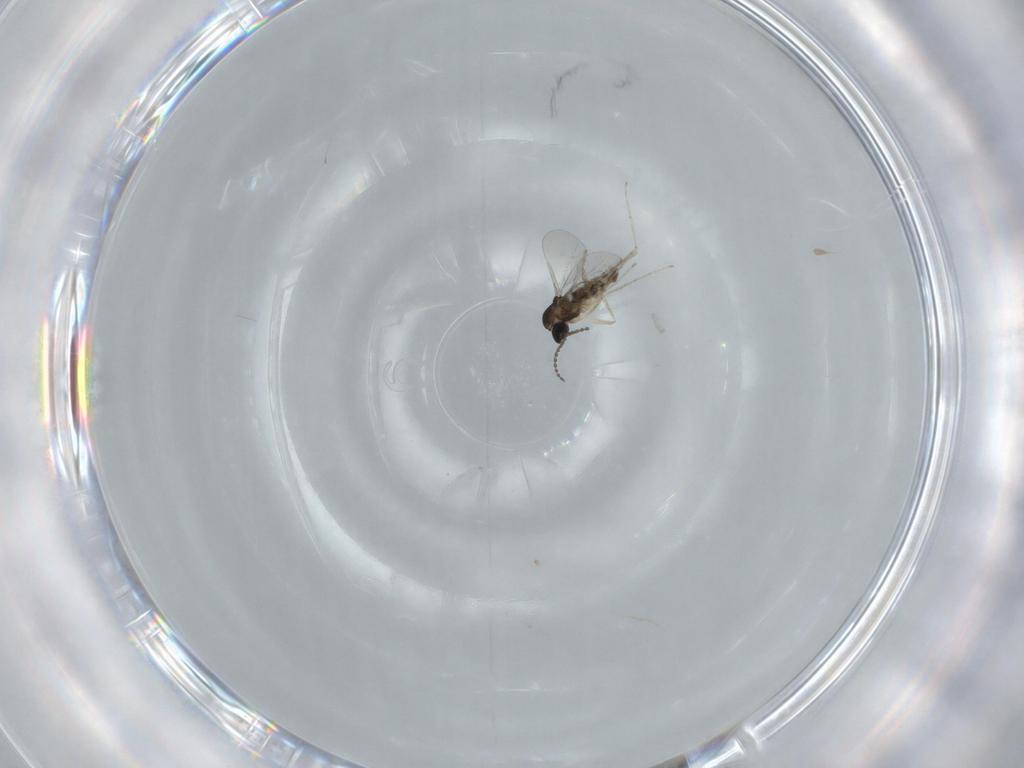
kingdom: Animalia
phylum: Arthropoda
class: Insecta
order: Diptera
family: Cecidomyiidae
